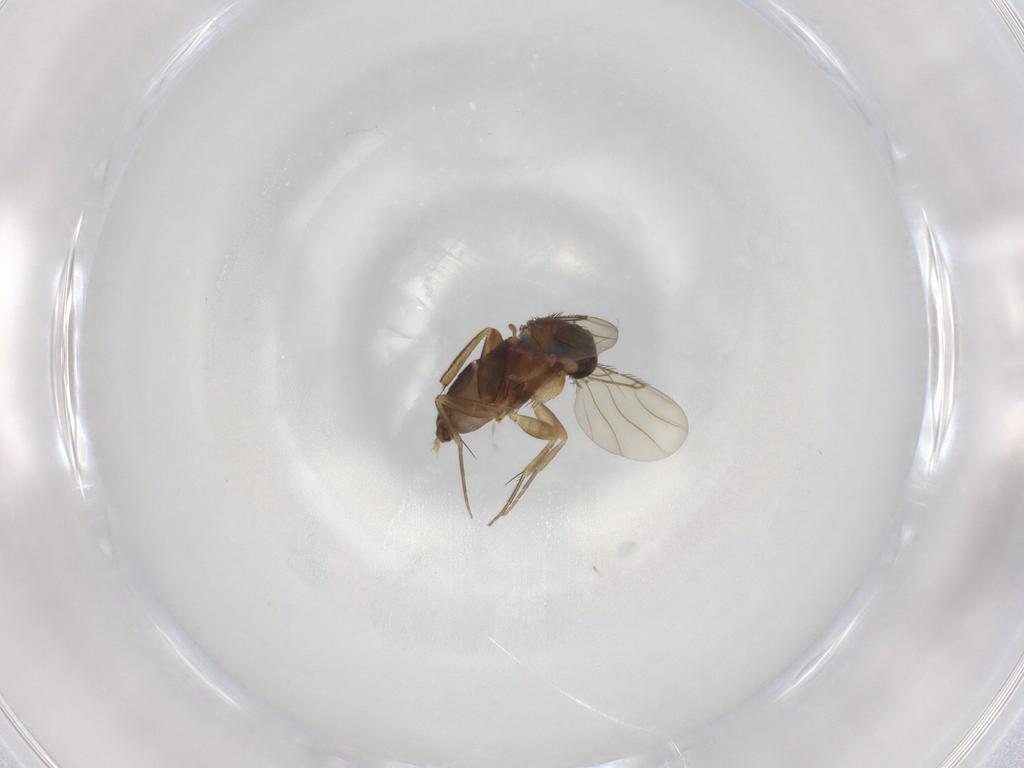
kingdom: Animalia
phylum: Arthropoda
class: Insecta
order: Diptera
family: Phoridae
